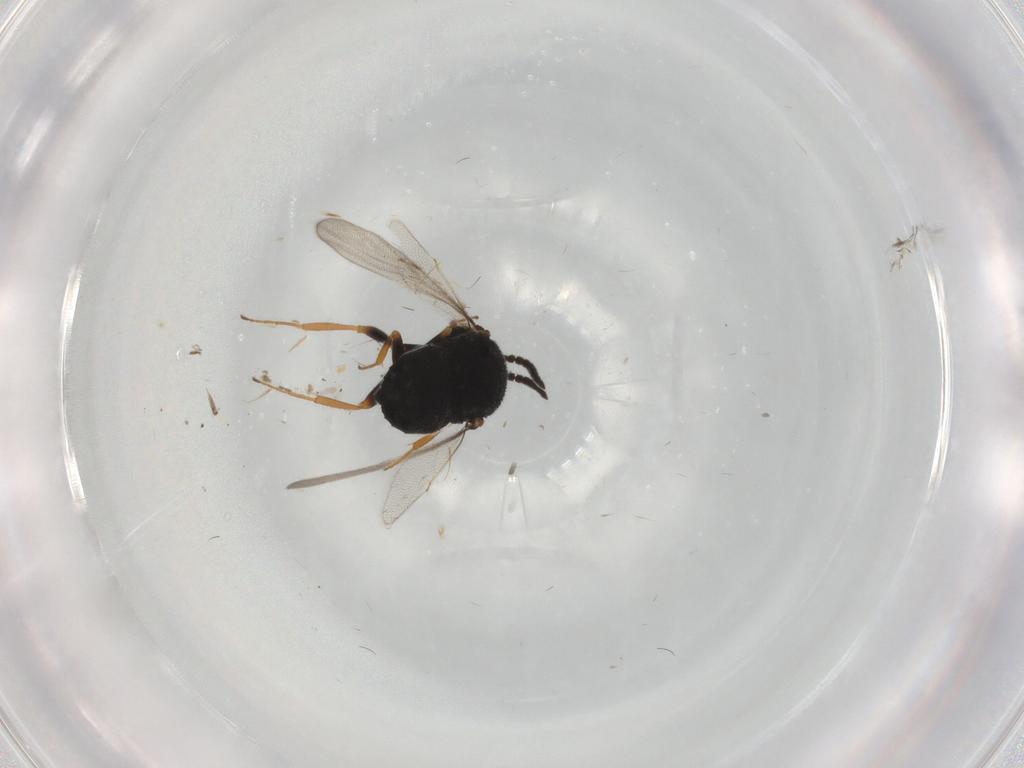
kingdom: Animalia
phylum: Arthropoda
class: Insecta
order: Hymenoptera
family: Scelionidae
